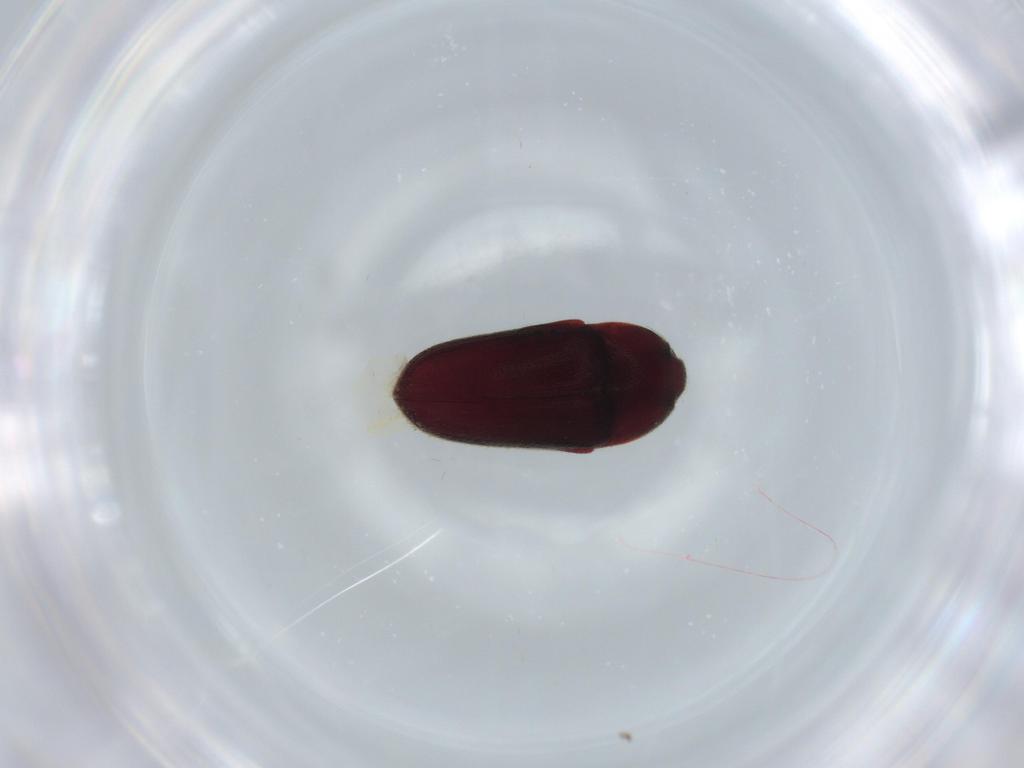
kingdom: Animalia
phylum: Arthropoda
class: Insecta
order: Coleoptera
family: Throscidae
